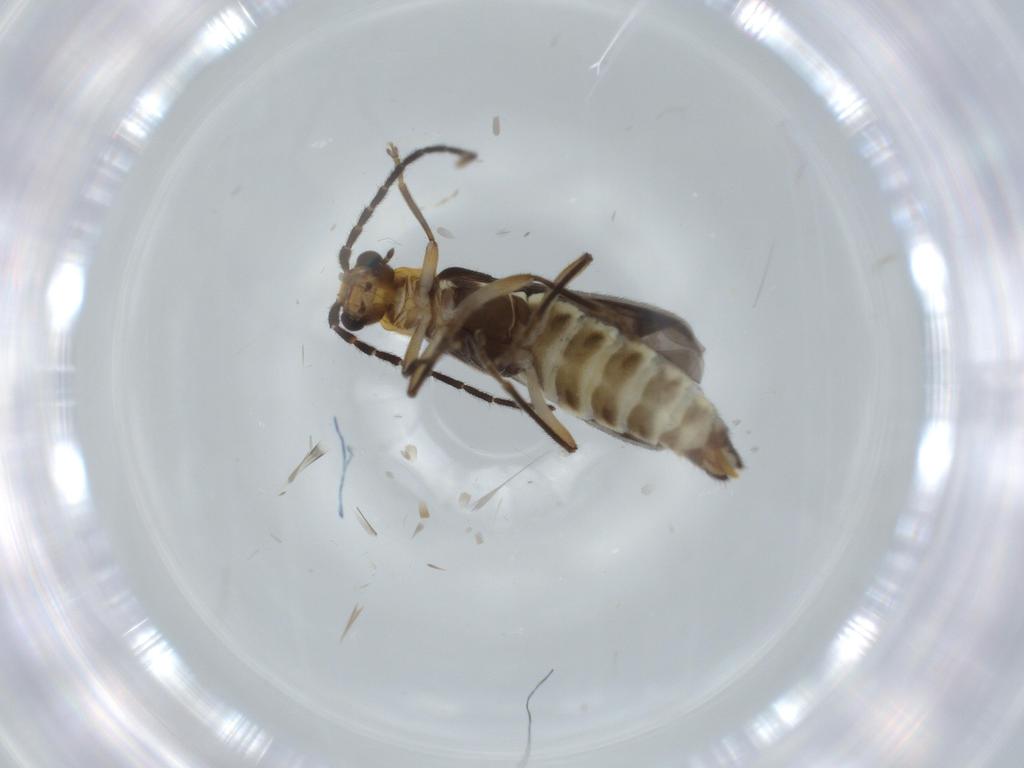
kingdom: Animalia
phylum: Arthropoda
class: Insecta
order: Coleoptera
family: Cantharidae
